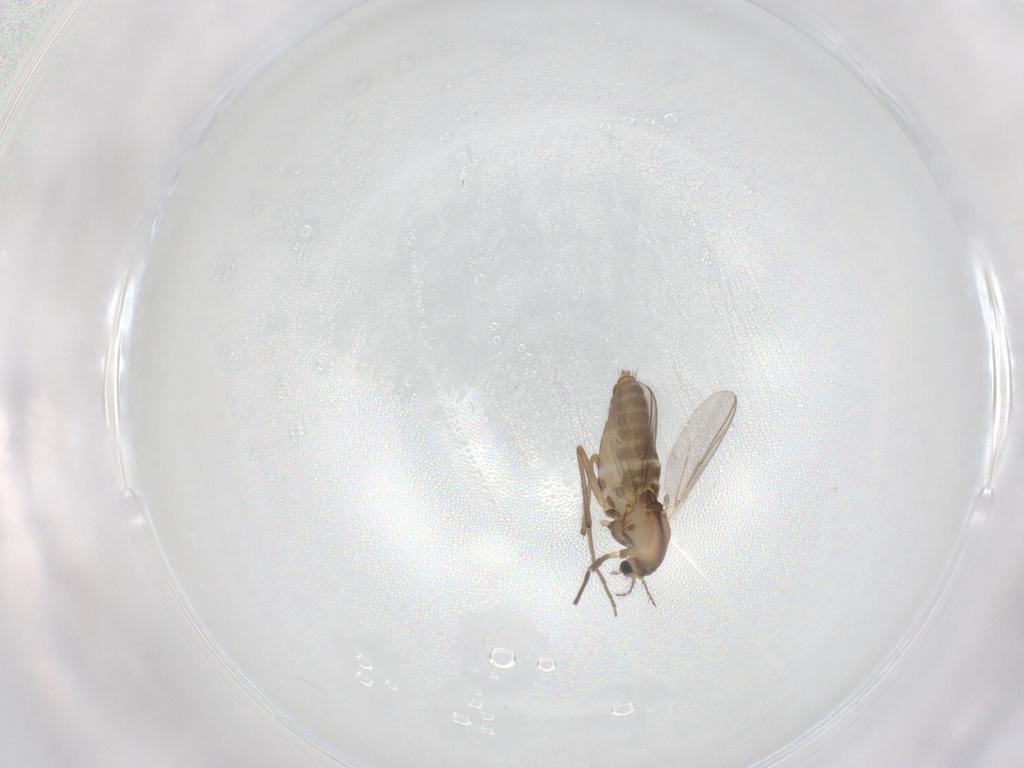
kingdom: Animalia
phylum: Arthropoda
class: Insecta
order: Diptera
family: Chironomidae
